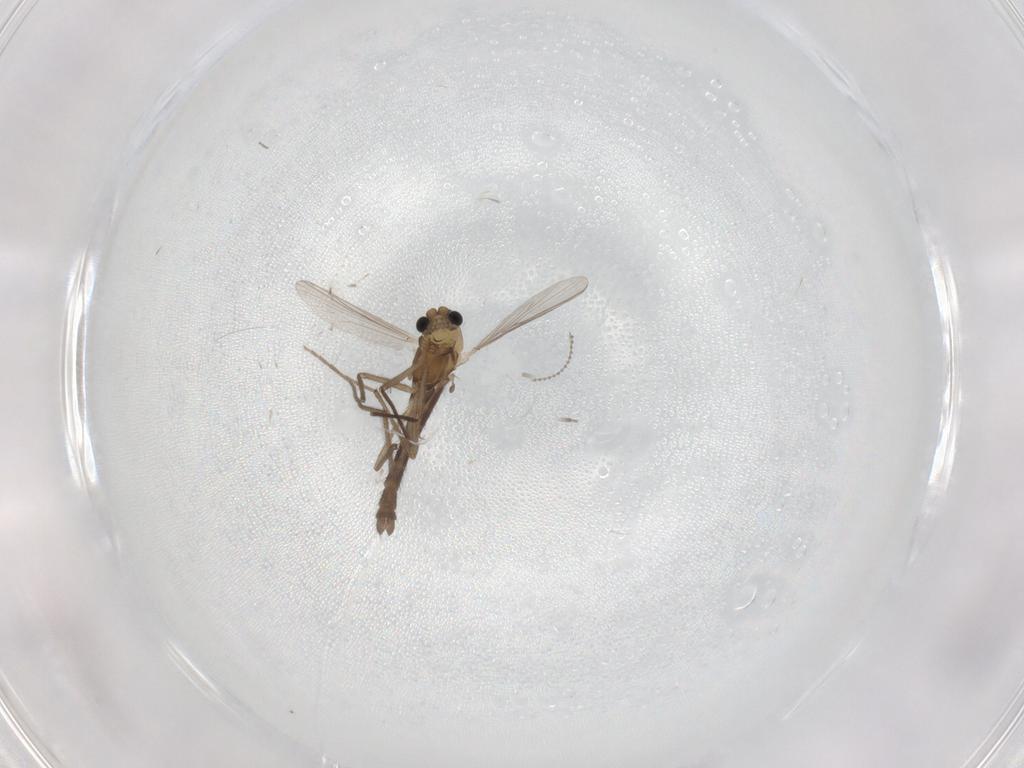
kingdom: Animalia
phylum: Arthropoda
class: Insecta
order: Diptera
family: Chironomidae
